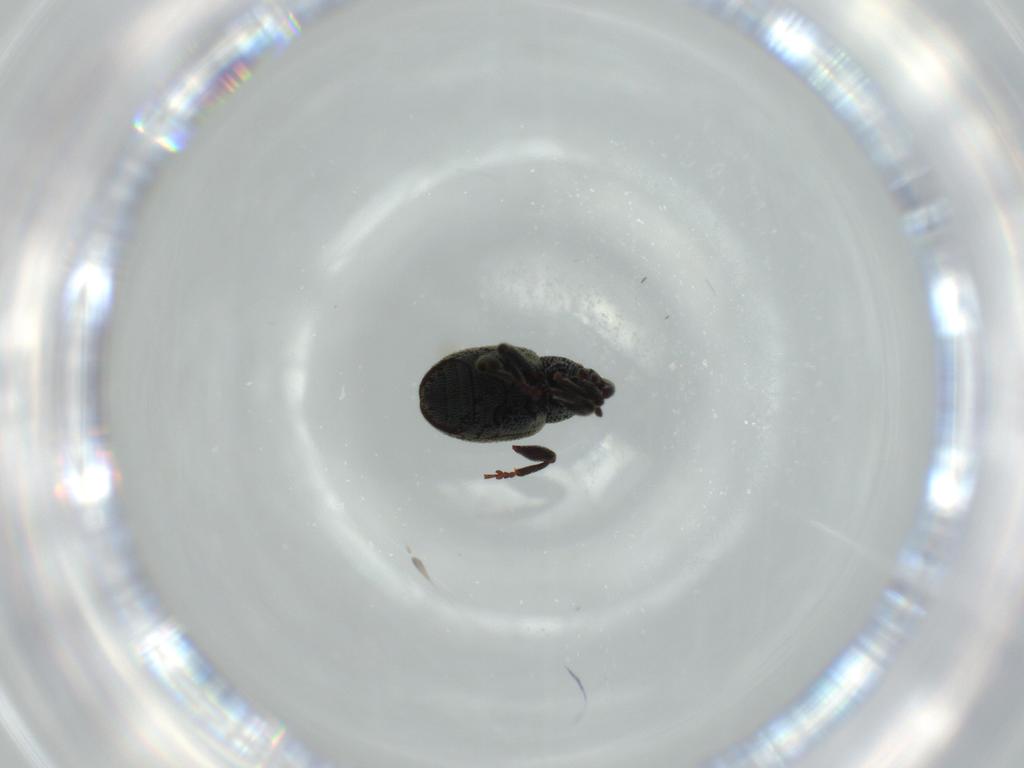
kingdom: Animalia
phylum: Arthropoda
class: Insecta
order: Coleoptera
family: Curculionidae
